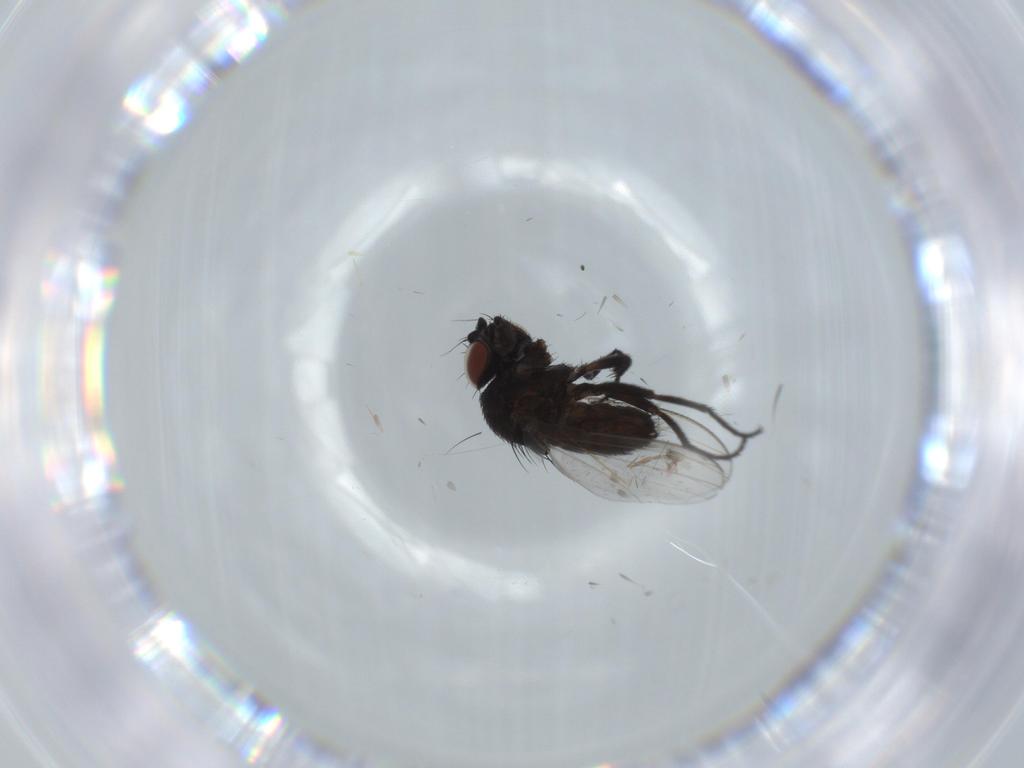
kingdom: Animalia
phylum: Arthropoda
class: Insecta
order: Diptera
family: Milichiidae
